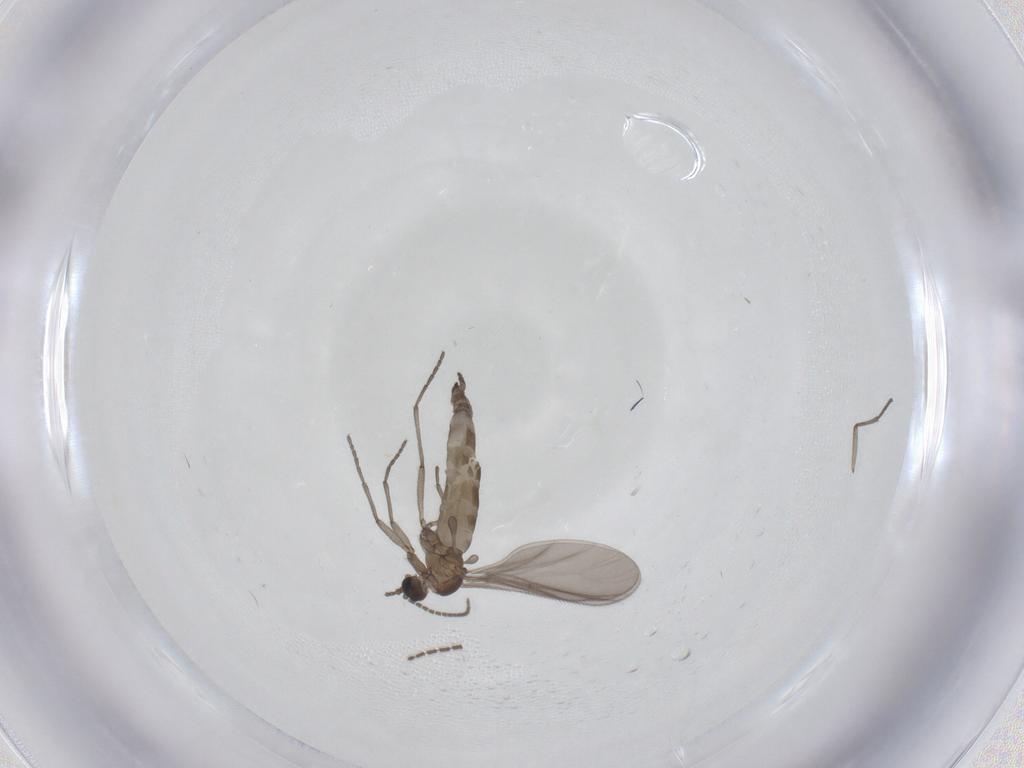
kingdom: Animalia
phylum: Arthropoda
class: Insecta
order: Diptera
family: Sciaridae
